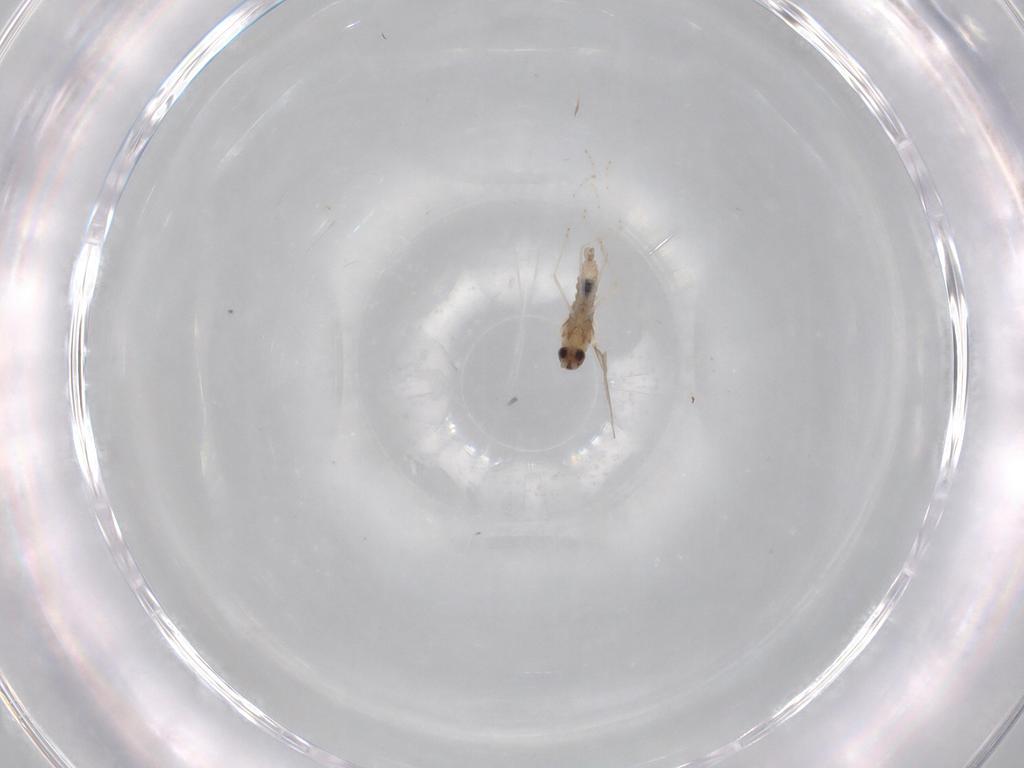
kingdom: Animalia
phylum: Arthropoda
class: Insecta
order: Diptera
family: Hybotidae
